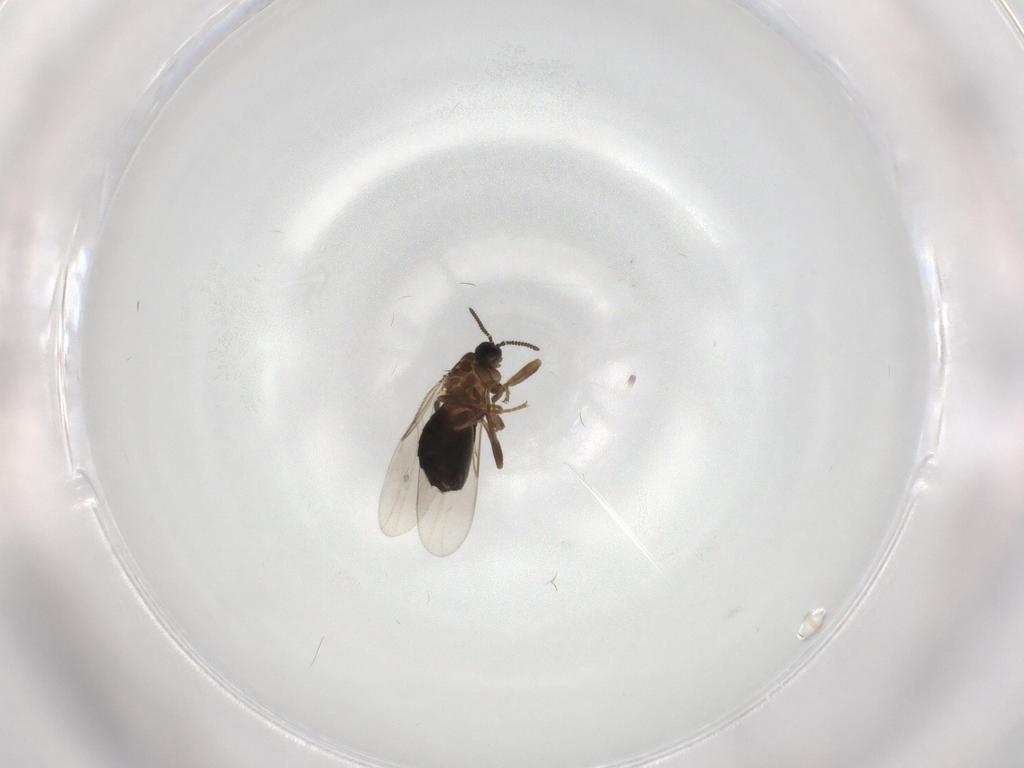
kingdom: Animalia
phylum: Arthropoda
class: Insecta
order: Diptera
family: Scatopsidae
